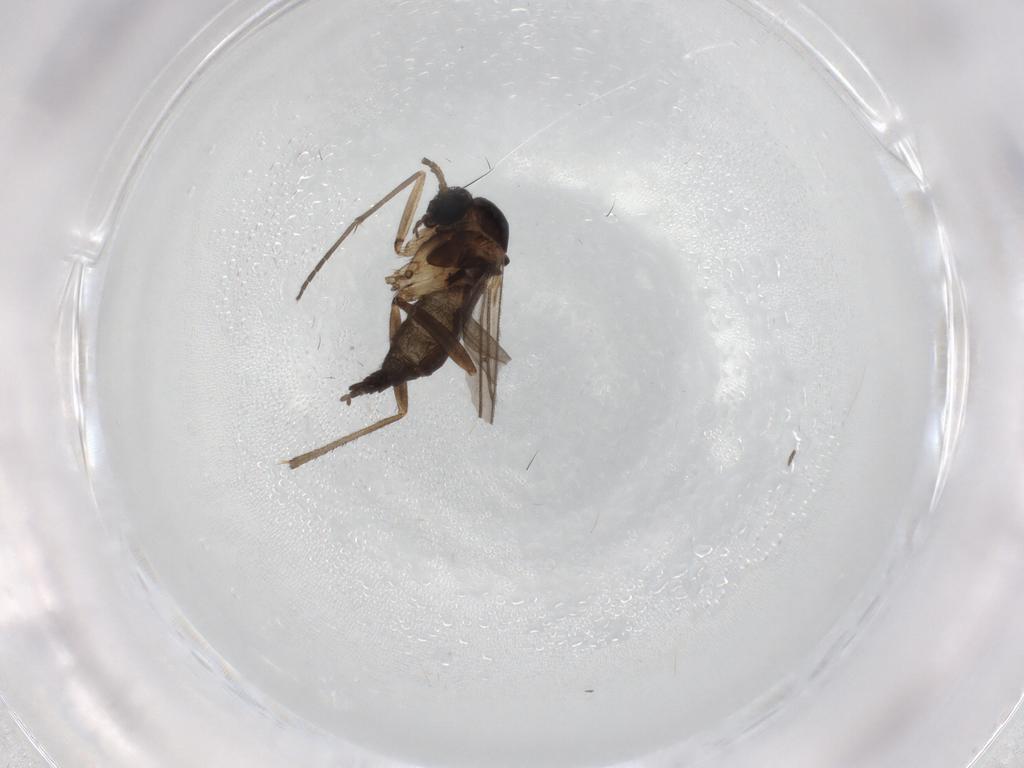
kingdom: Animalia
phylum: Arthropoda
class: Insecta
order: Diptera
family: Sciaridae
